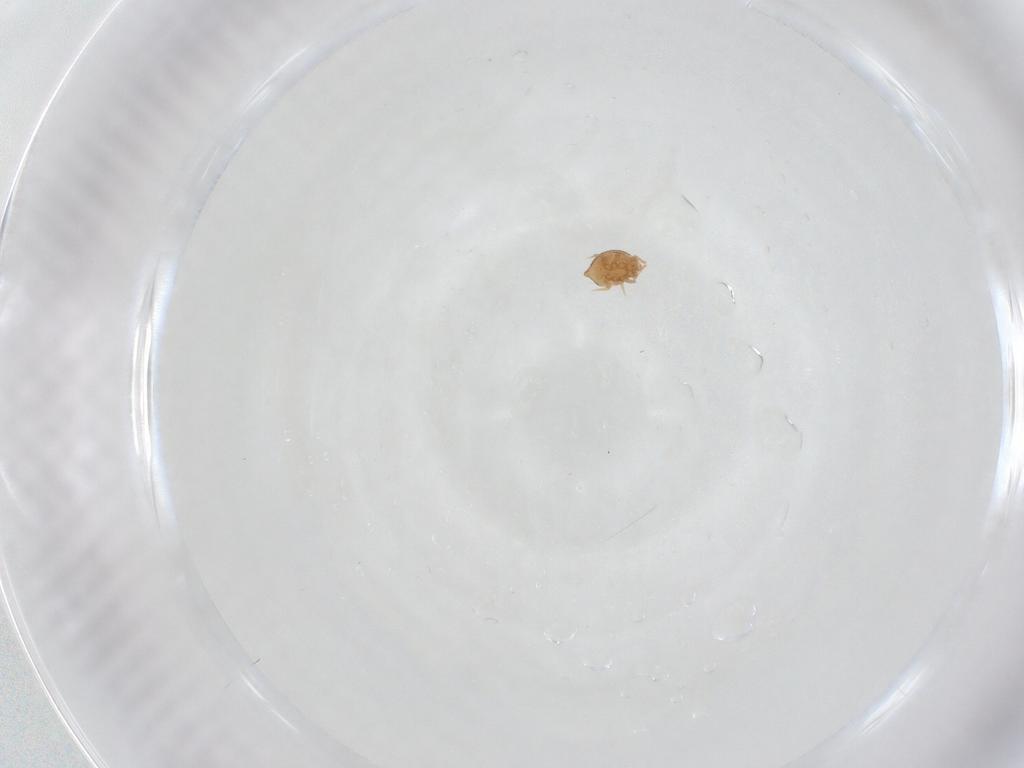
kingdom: Animalia
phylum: Arthropoda
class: Arachnida
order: Mesostigmata
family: Polyaspididae
